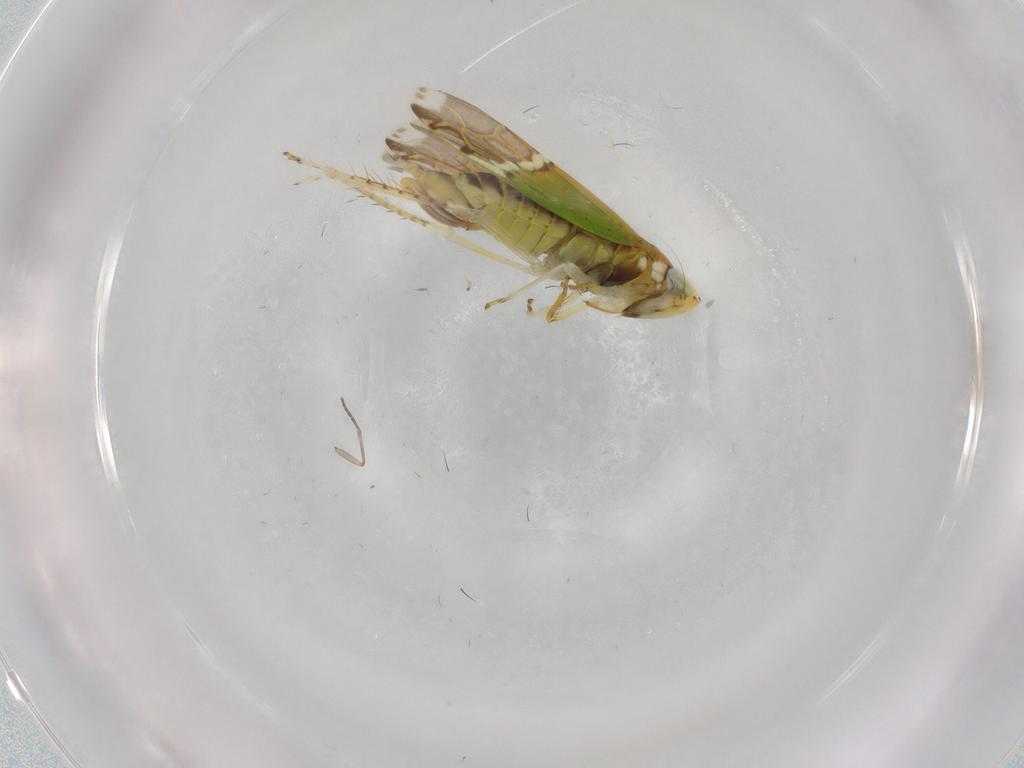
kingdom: Animalia
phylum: Arthropoda
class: Insecta
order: Hemiptera
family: Cicadellidae
